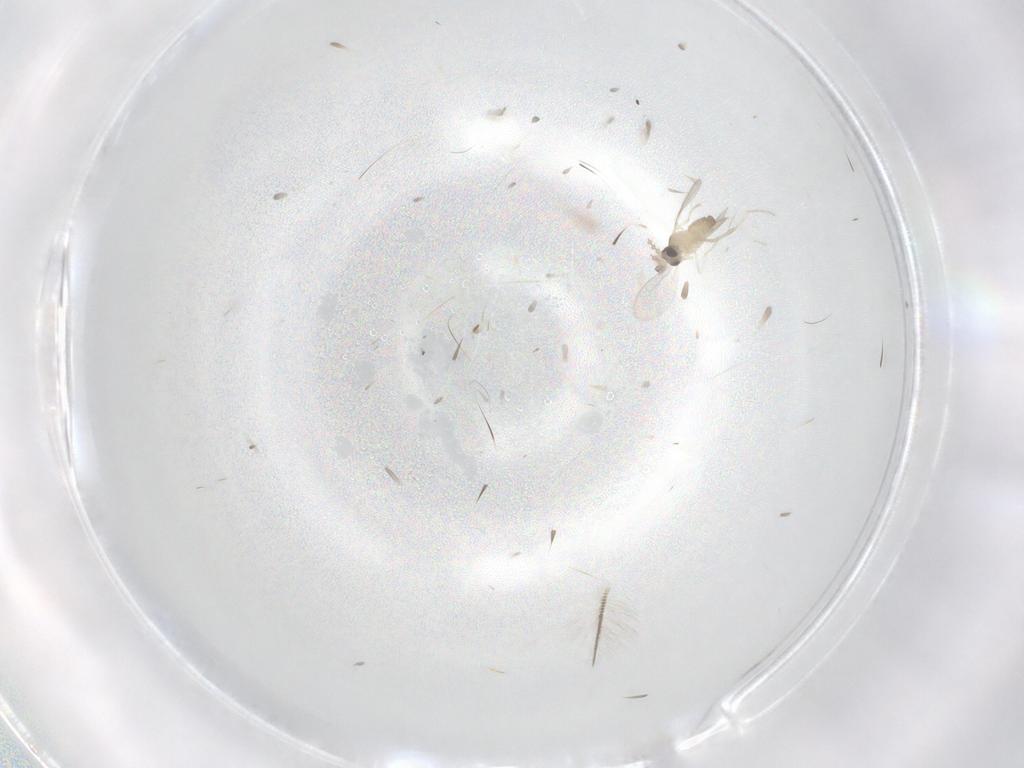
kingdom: Animalia
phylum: Arthropoda
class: Insecta
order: Diptera
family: Cecidomyiidae
